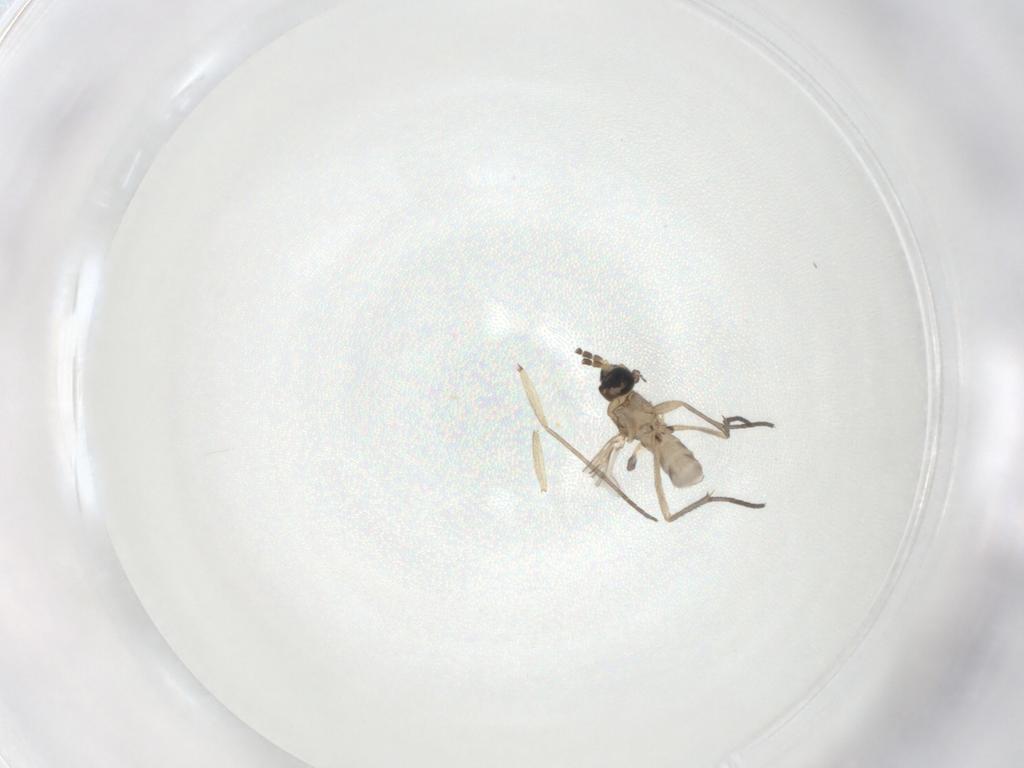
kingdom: Animalia
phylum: Arthropoda
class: Insecta
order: Diptera
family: Sciaridae
